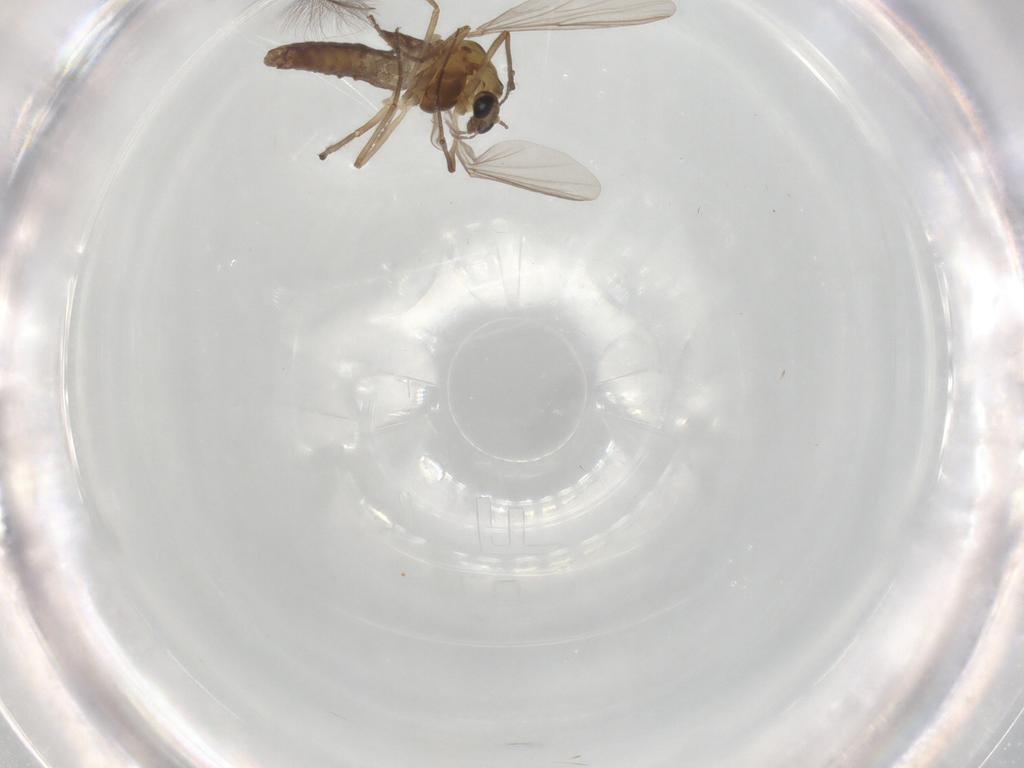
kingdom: Animalia
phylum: Arthropoda
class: Insecta
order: Diptera
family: Chironomidae
